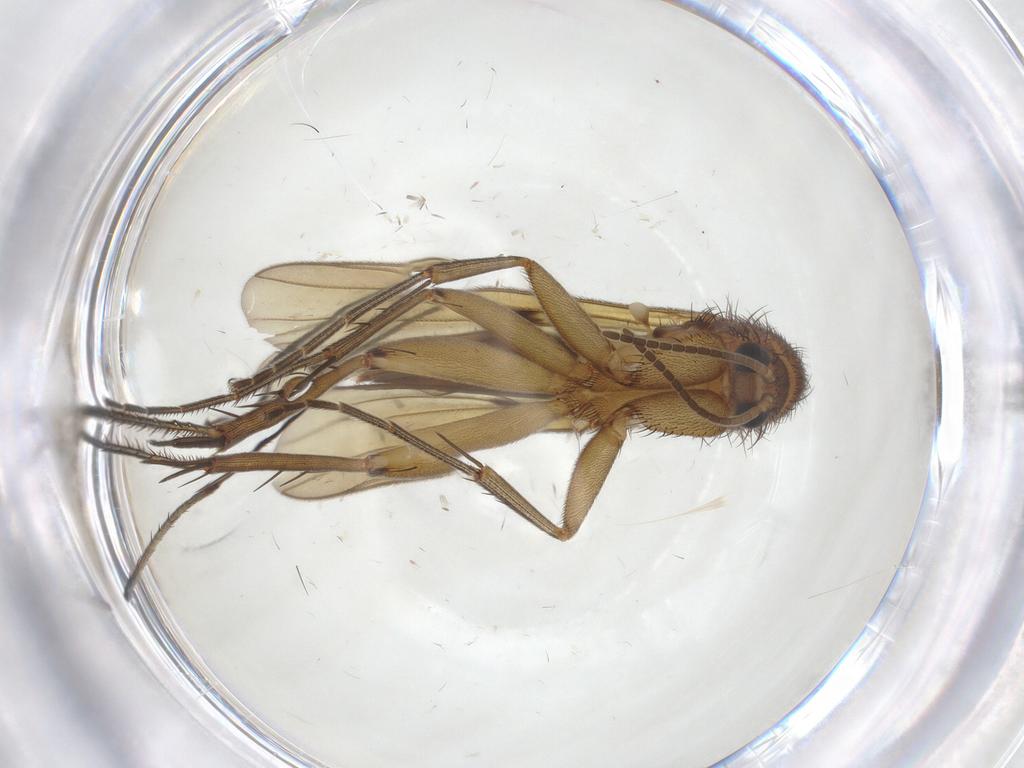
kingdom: Animalia
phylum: Arthropoda
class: Insecta
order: Diptera
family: Mycetophilidae
